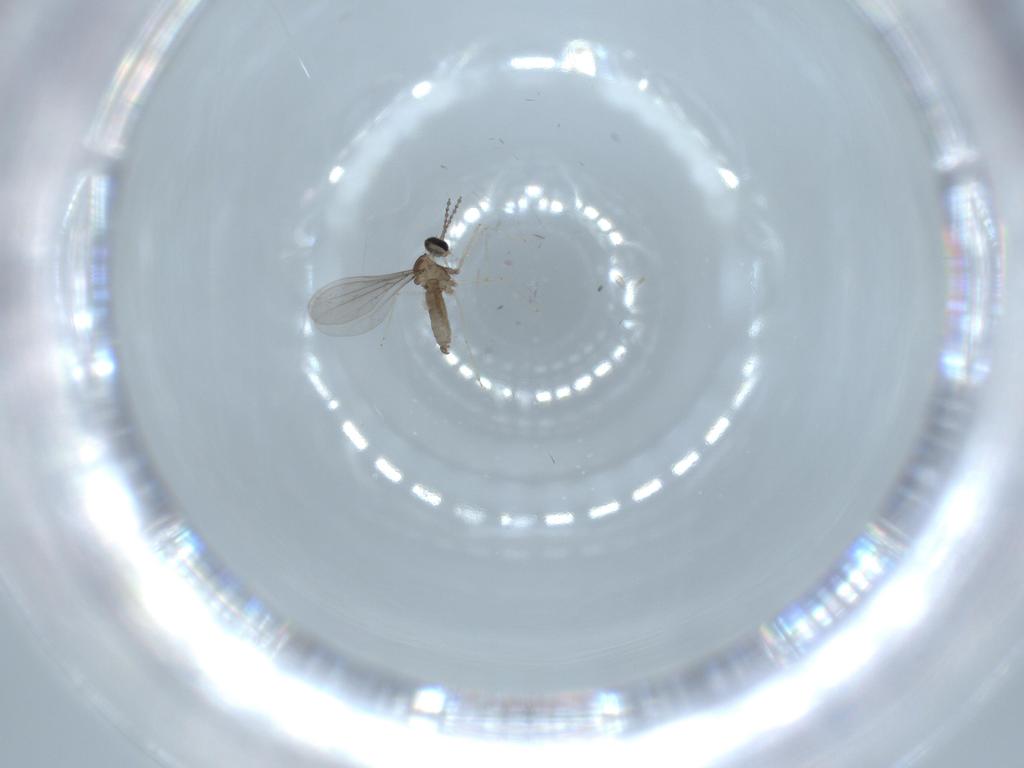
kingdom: Animalia
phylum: Arthropoda
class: Insecta
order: Diptera
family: Cecidomyiidae
